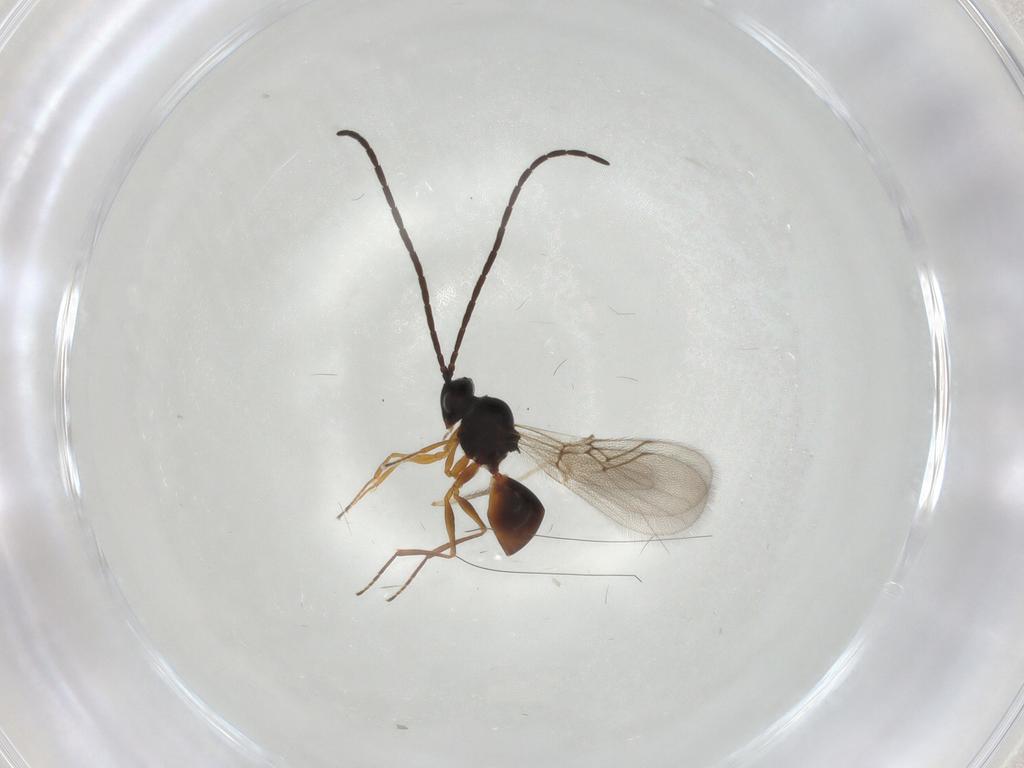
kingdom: Animalia
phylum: Arthropoda
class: Insecta
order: Hymenoptera
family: Figitidae
